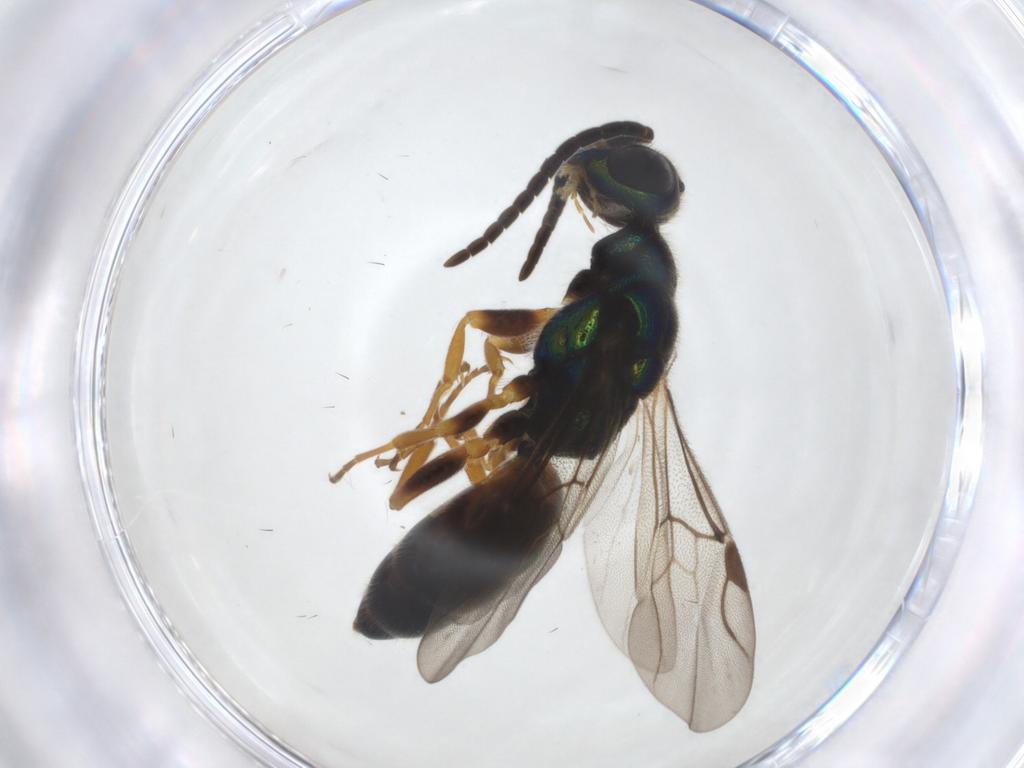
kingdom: Animalia
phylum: Arthropoda
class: Insecta
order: Hymenoptera
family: Chrysididae
